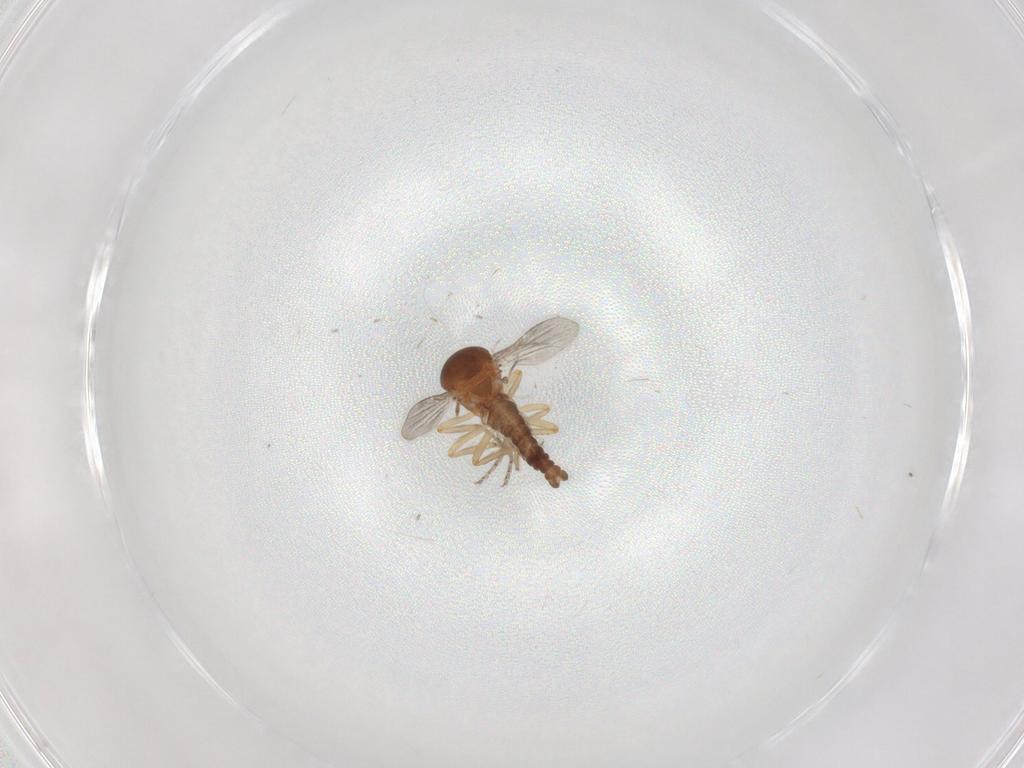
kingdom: Animalia
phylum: Arthropoda
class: Insecta
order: Diptera
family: Ceratopogonidae
